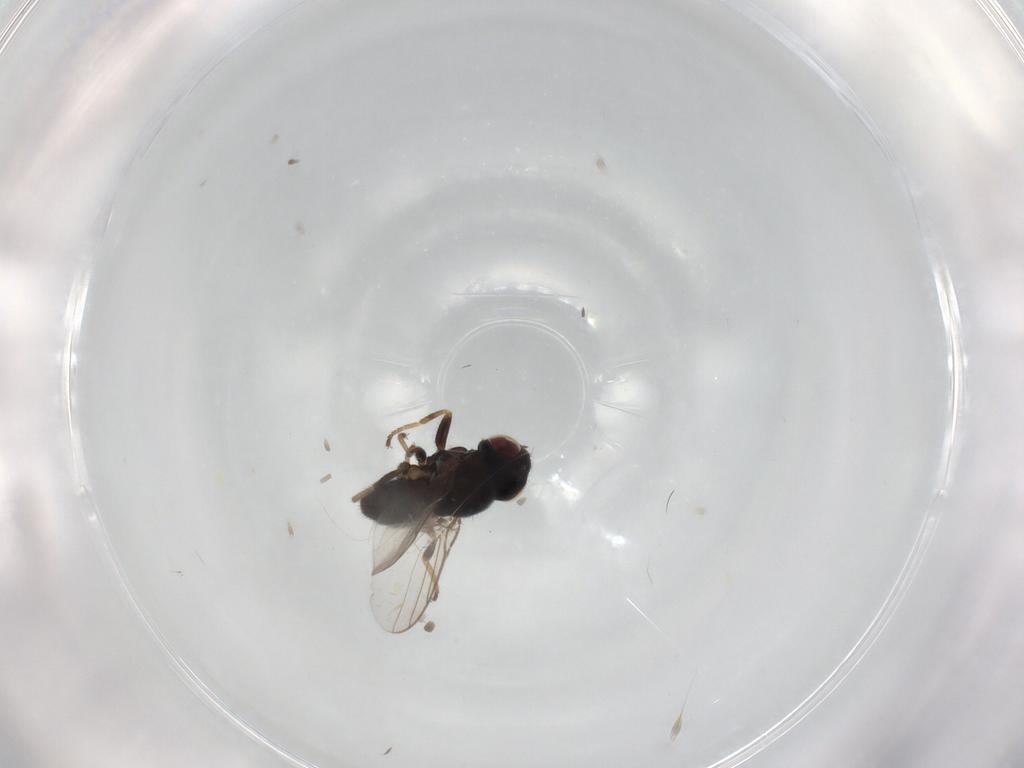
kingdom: Animalia
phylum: Arthropoda
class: Insecta
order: Diptera
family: Chloropidae
